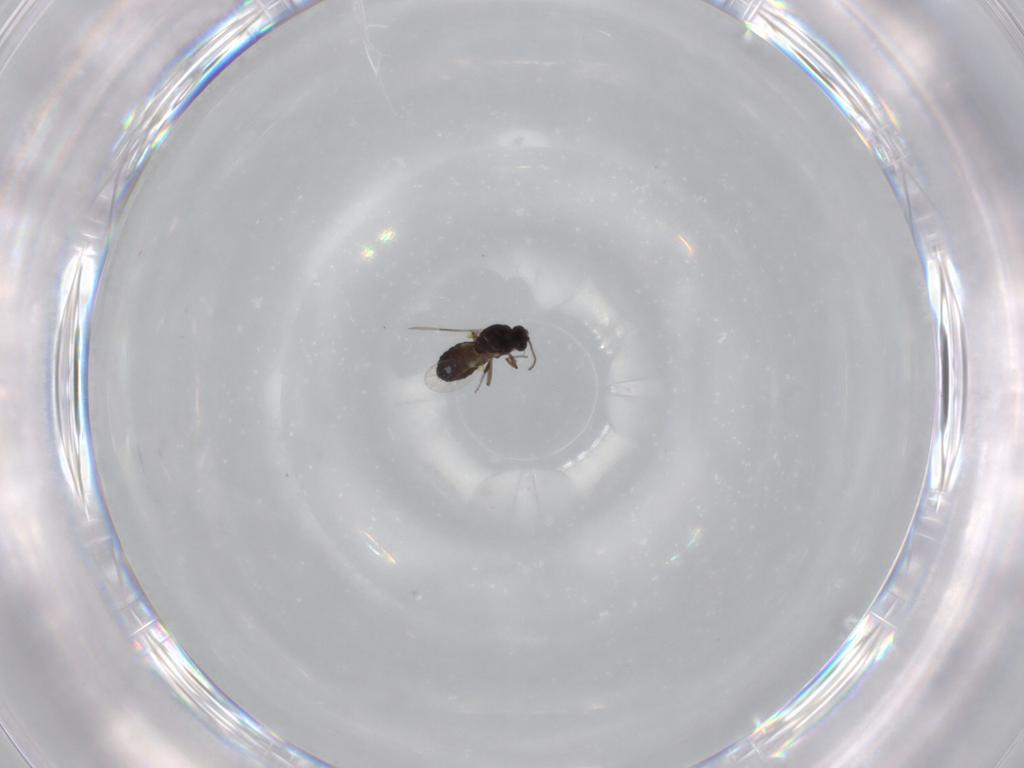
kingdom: Animalia
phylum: Arthropoda
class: Insecta
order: Diptera
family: Ceratopogonidae
